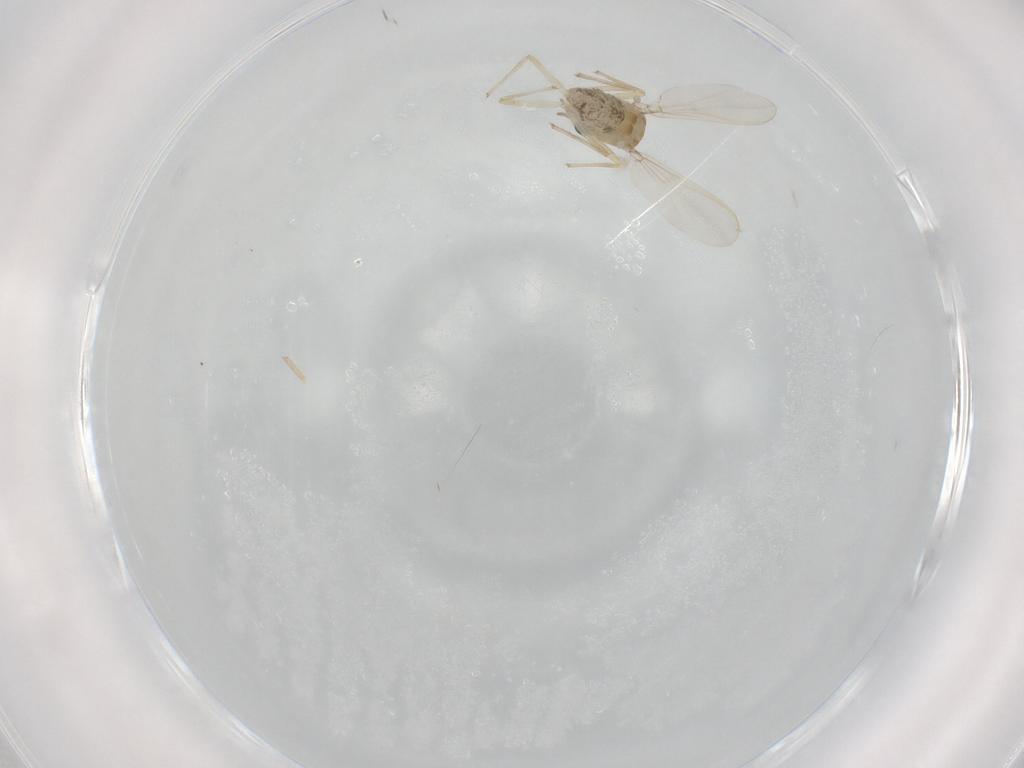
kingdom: Animalia
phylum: Arthropoda
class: Insecta
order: Diptera
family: Chironomidae
